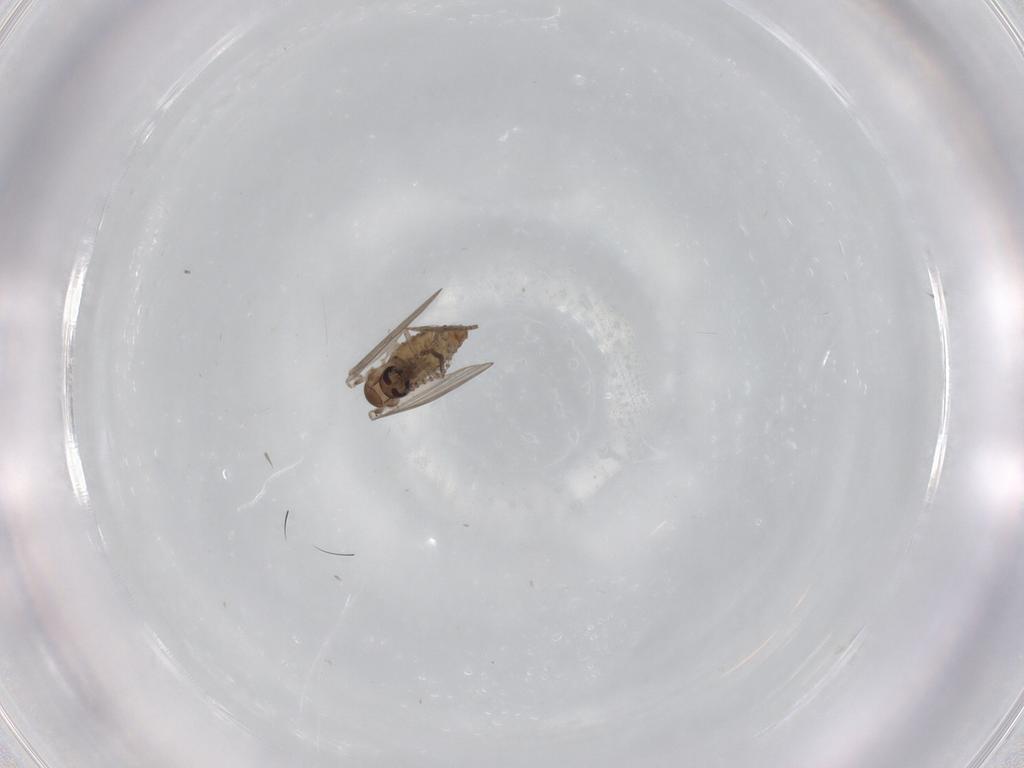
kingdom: Animalia
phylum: Arthropoda
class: Insecta
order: Diptera
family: Psychodidae
